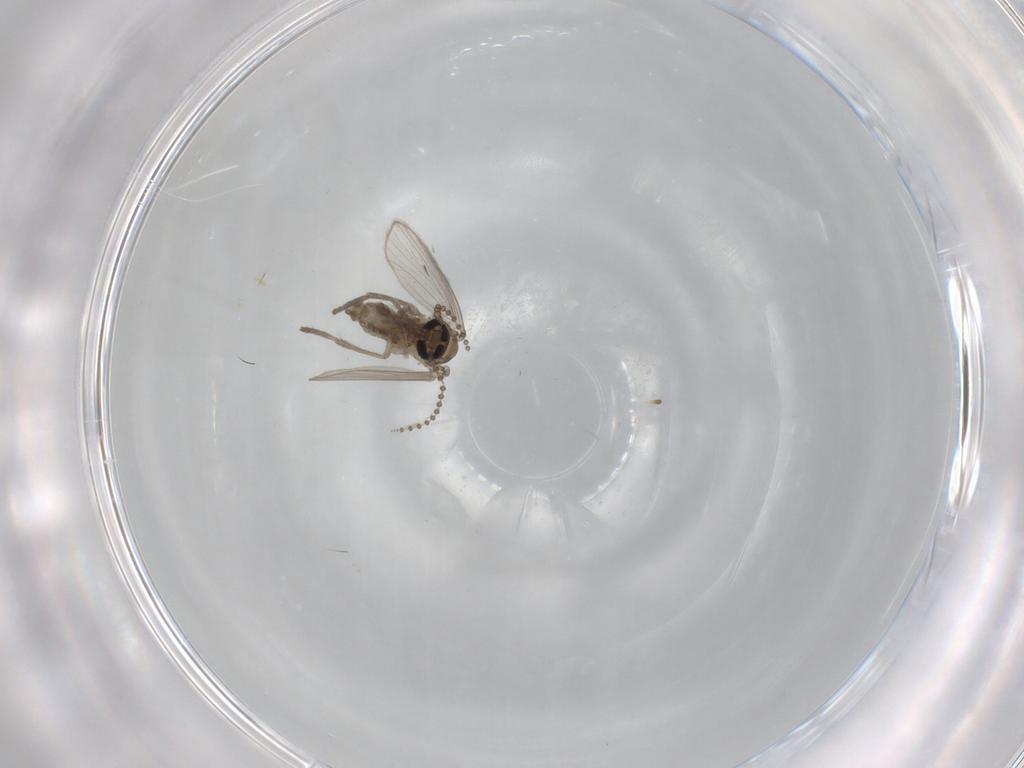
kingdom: Animalia
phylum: Arthropoda
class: Insecta
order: Diptera
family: Psychodidae
